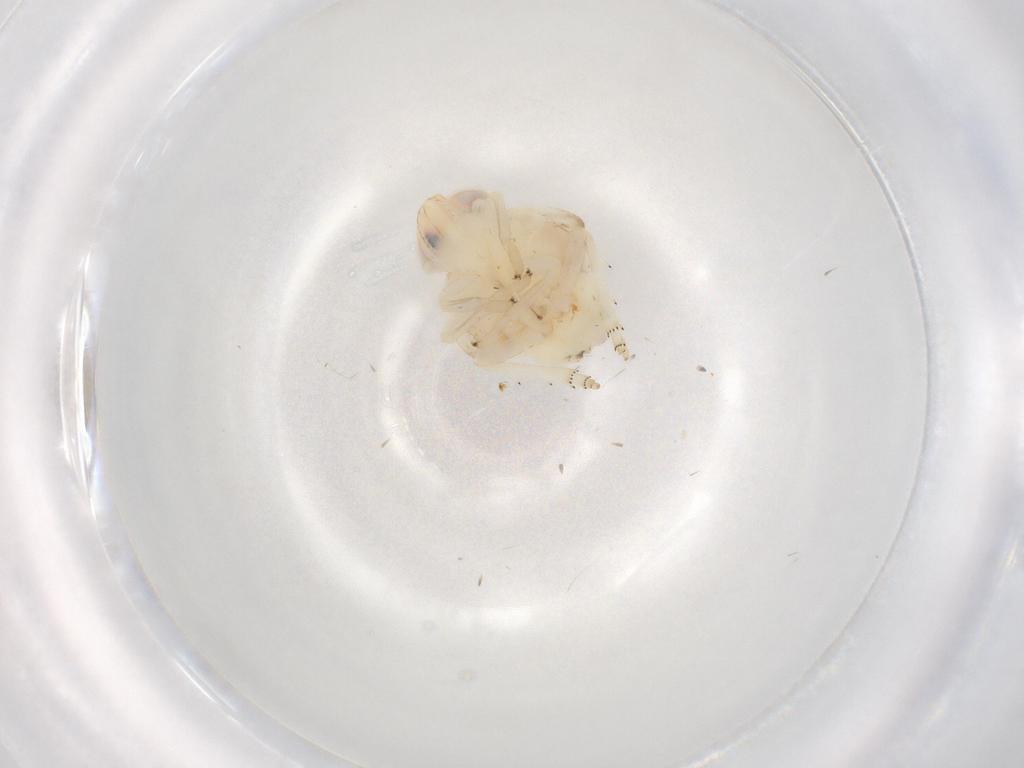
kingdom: Animalia
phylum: Arthropoda
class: Insecta
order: Hemiptera
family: Nogodinidae
